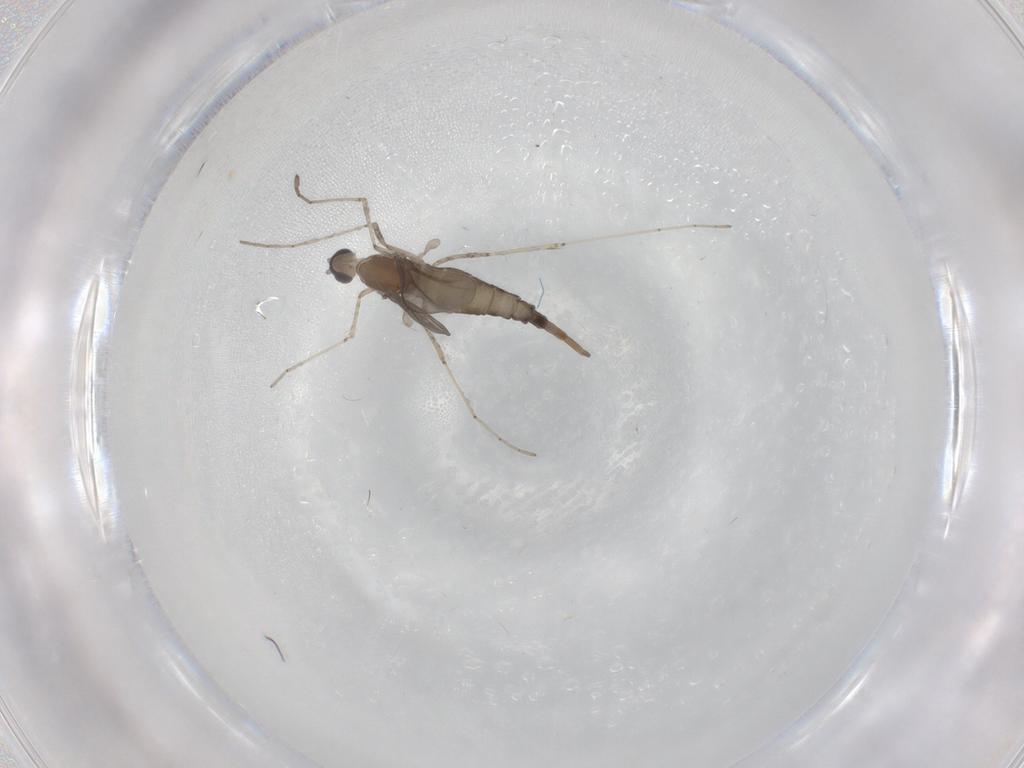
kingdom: Animalia
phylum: Arthropoda
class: Insecta
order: Diptera
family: Cecidomyiidae
